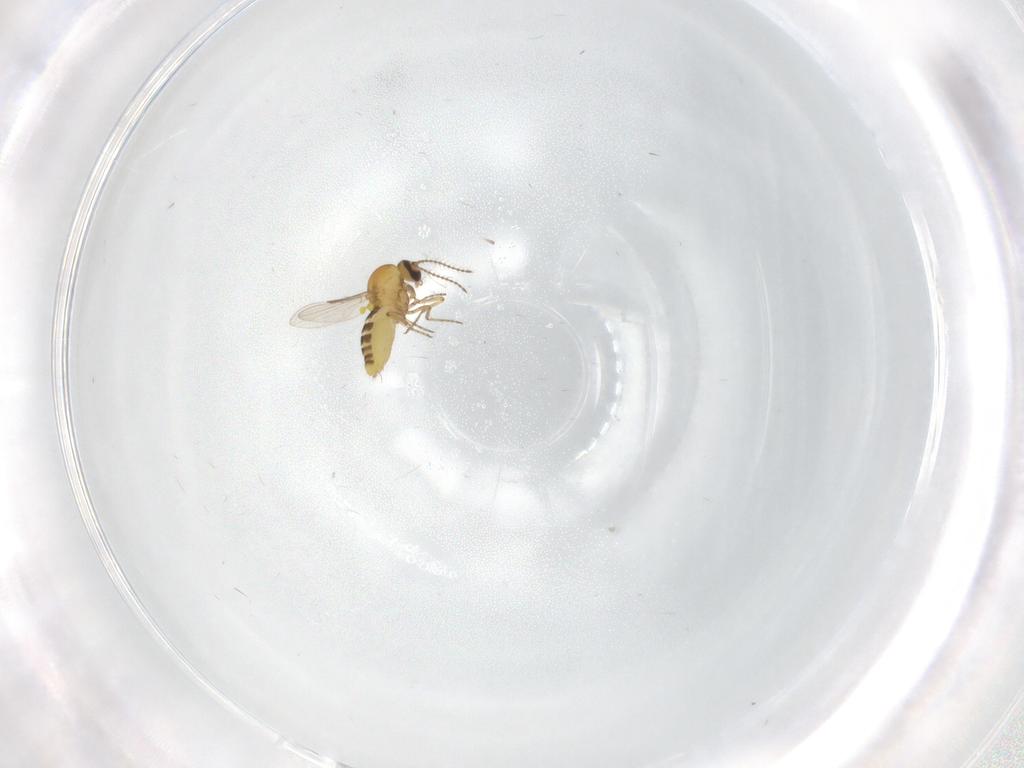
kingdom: Animalia
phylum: Arthropoda
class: Insecta
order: Diptera
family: Ceratopogonidae
